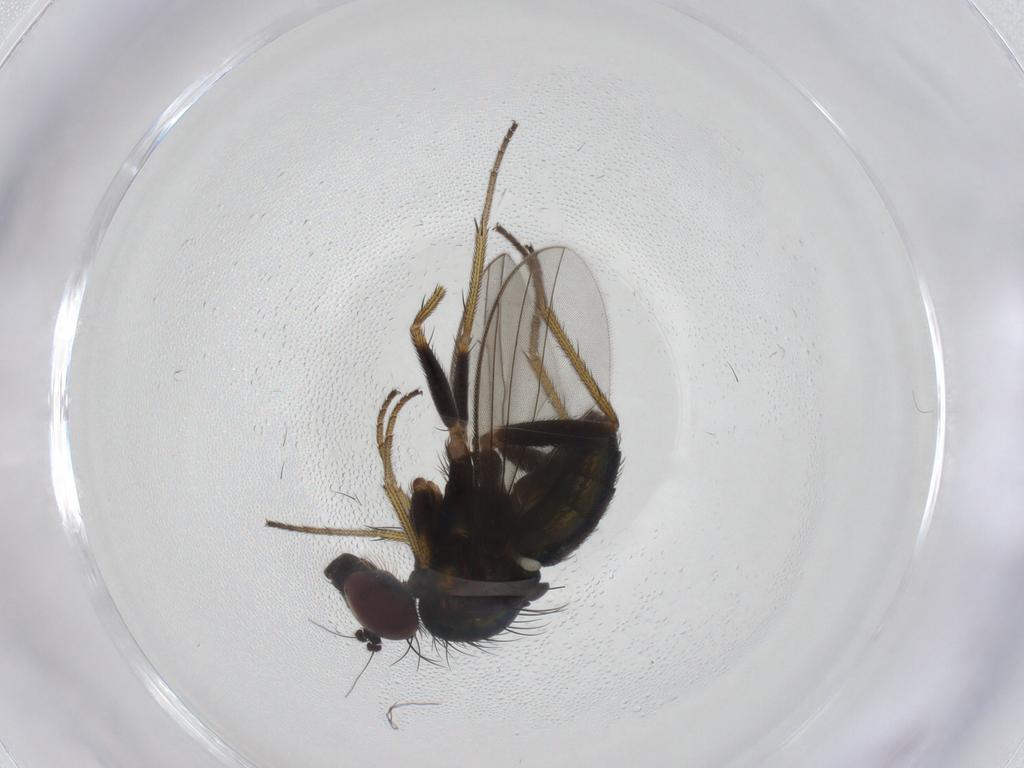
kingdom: Animalia
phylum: Arthropoda
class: Insecta
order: Diptera
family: Dolichopodidae
